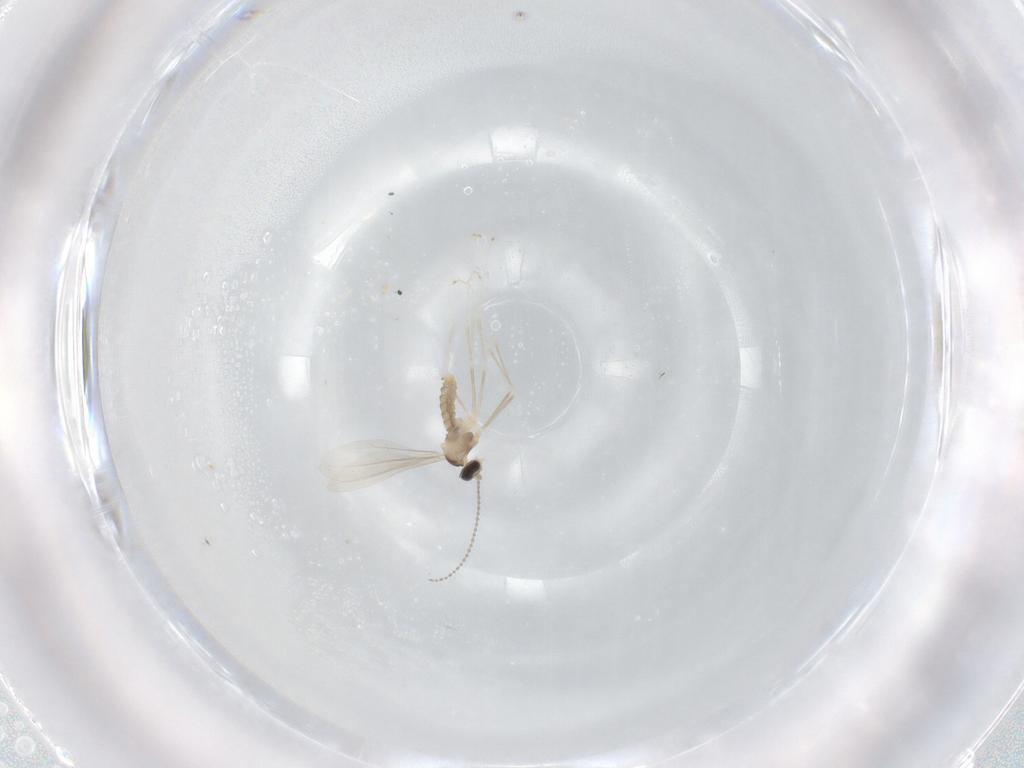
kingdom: Animalia
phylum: Arthropoda
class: Insecta
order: Diptera
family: Cecidomyiidae
